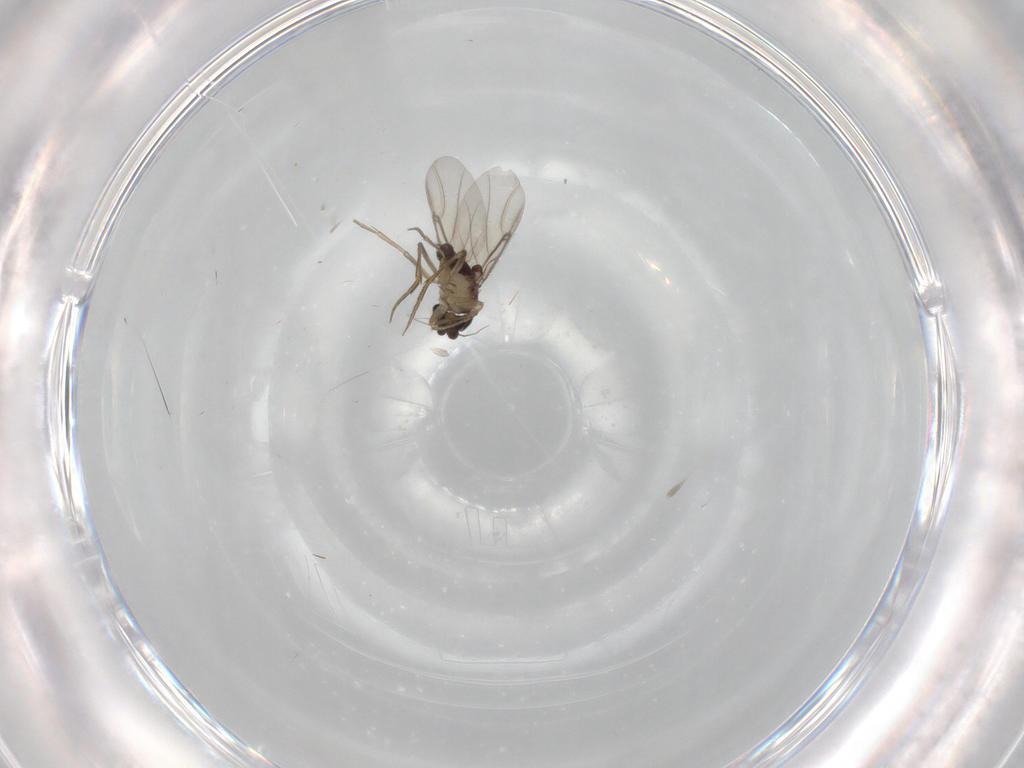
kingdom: Animalia
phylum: Arthropoda
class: Insecta
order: Diptera
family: Phoridae
